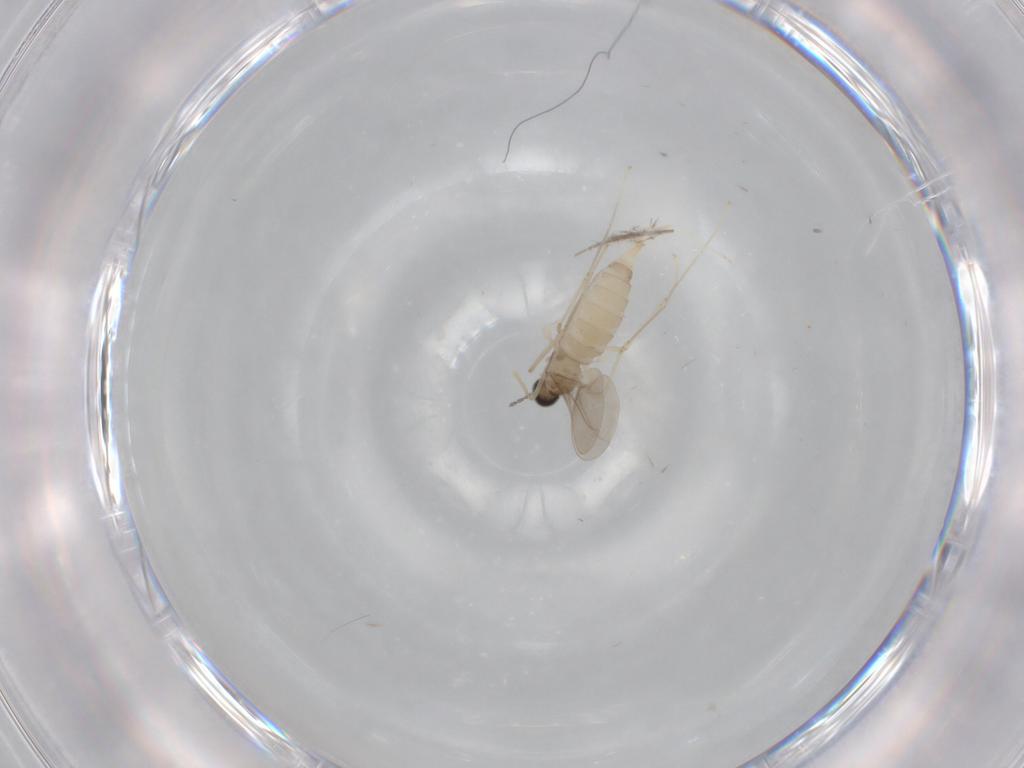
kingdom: Animalia
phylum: Arthropoda
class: Insecta
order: Diptera
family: Cecidomyiidae
